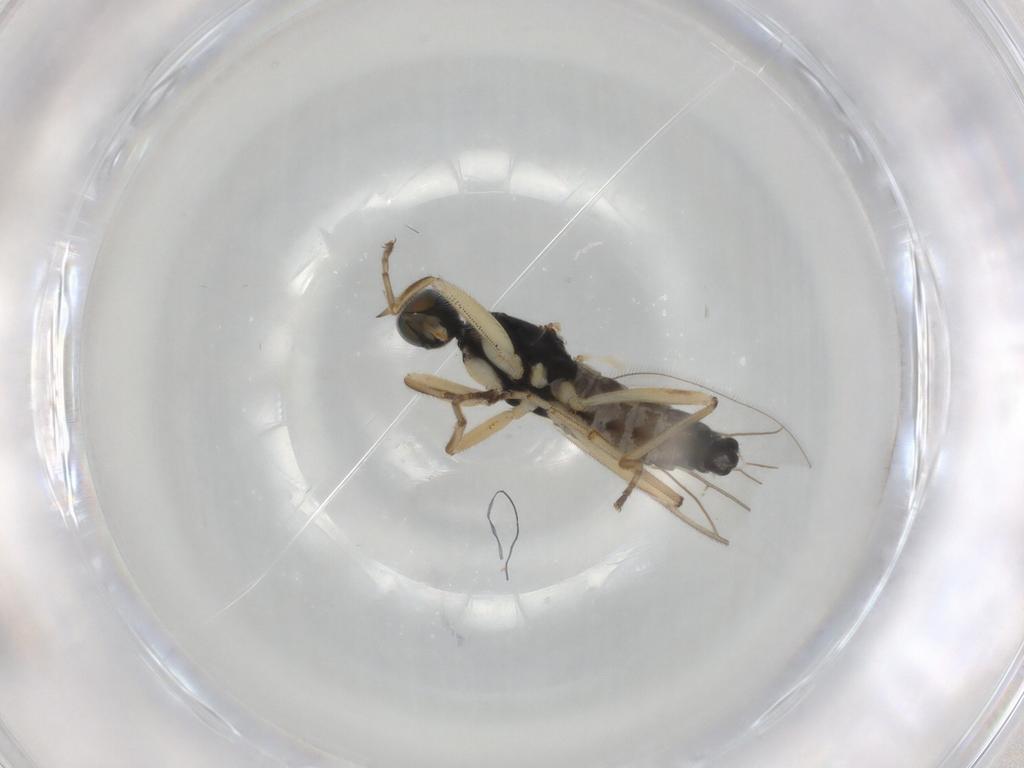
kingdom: Animalia
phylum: Arthropoda
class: Insecta
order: Diptera
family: Chironomidae
